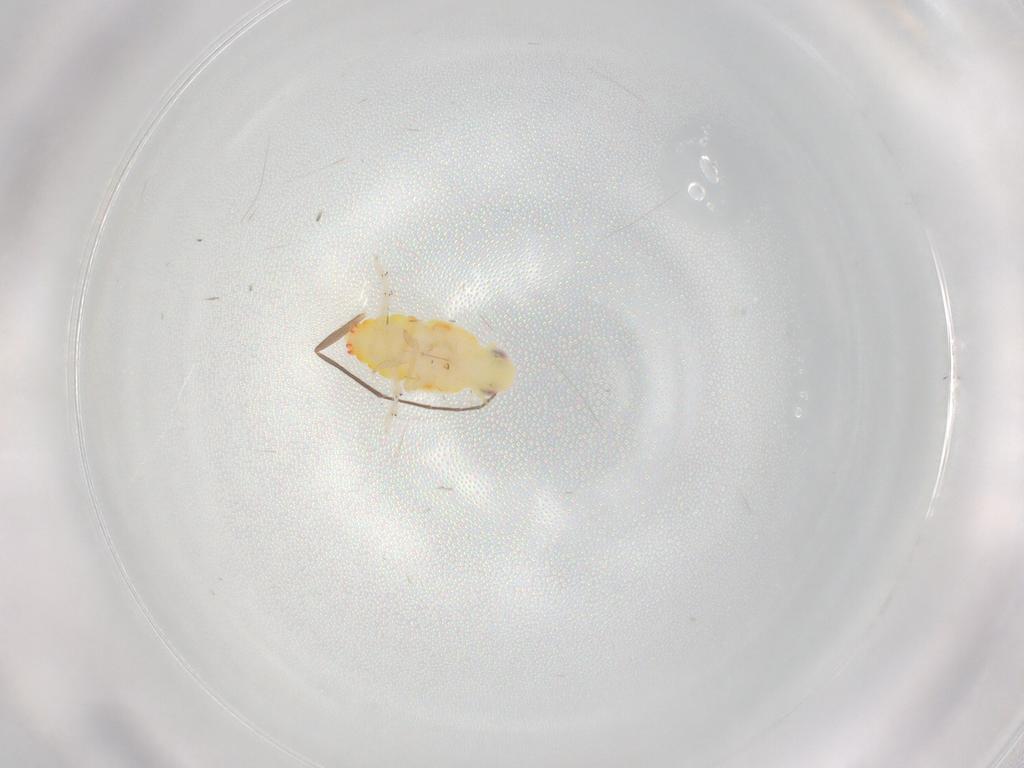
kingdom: Animalia
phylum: Arthropoda
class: Insecta
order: Hemiptera
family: Tropiduchidae
